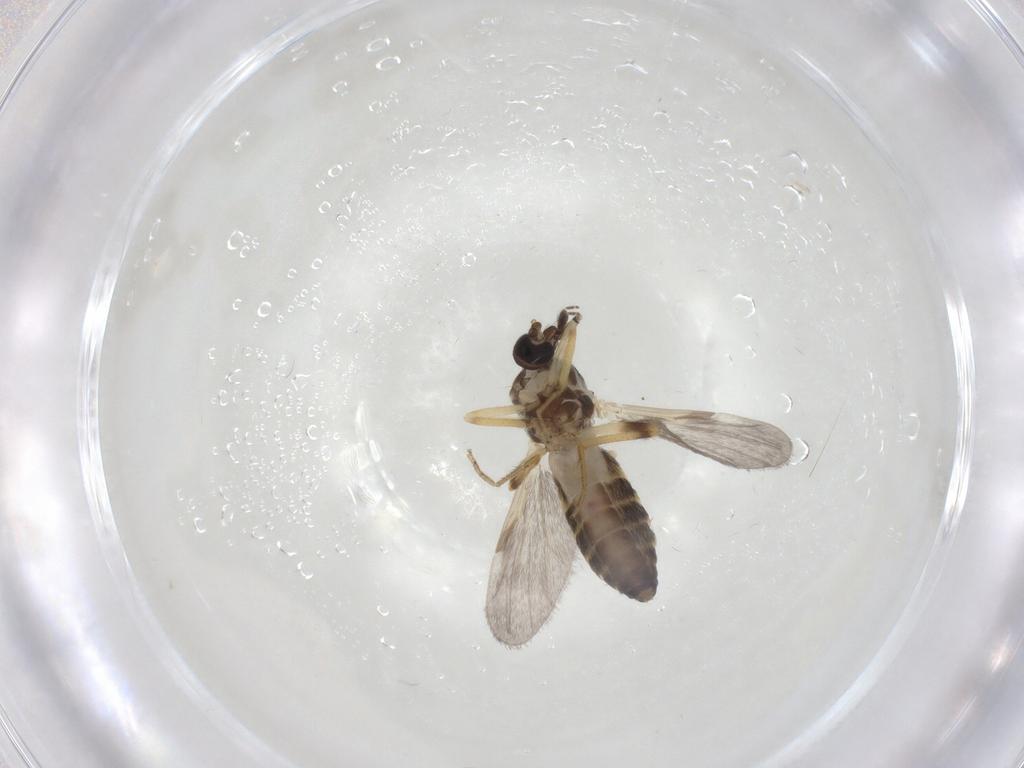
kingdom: Animalia
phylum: Arthropoda
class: Insecta
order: Diptera
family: Ceratopogonidae
